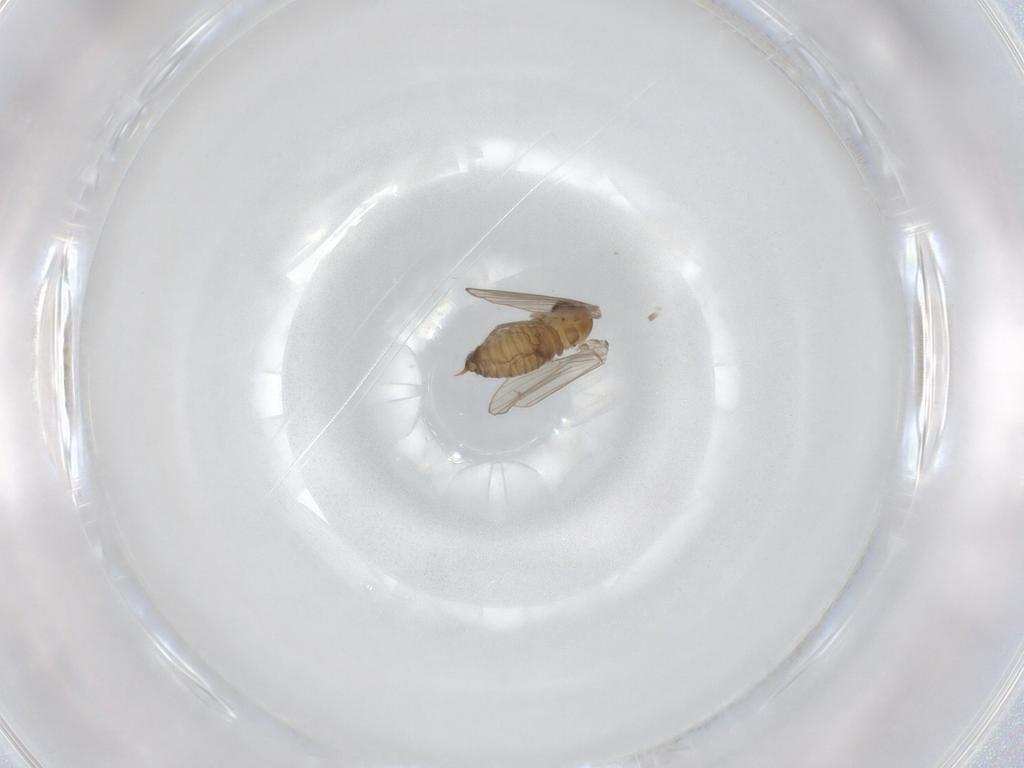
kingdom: Animalia
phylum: Arthropoda
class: Insecta
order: Diptera
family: Psychodidae
